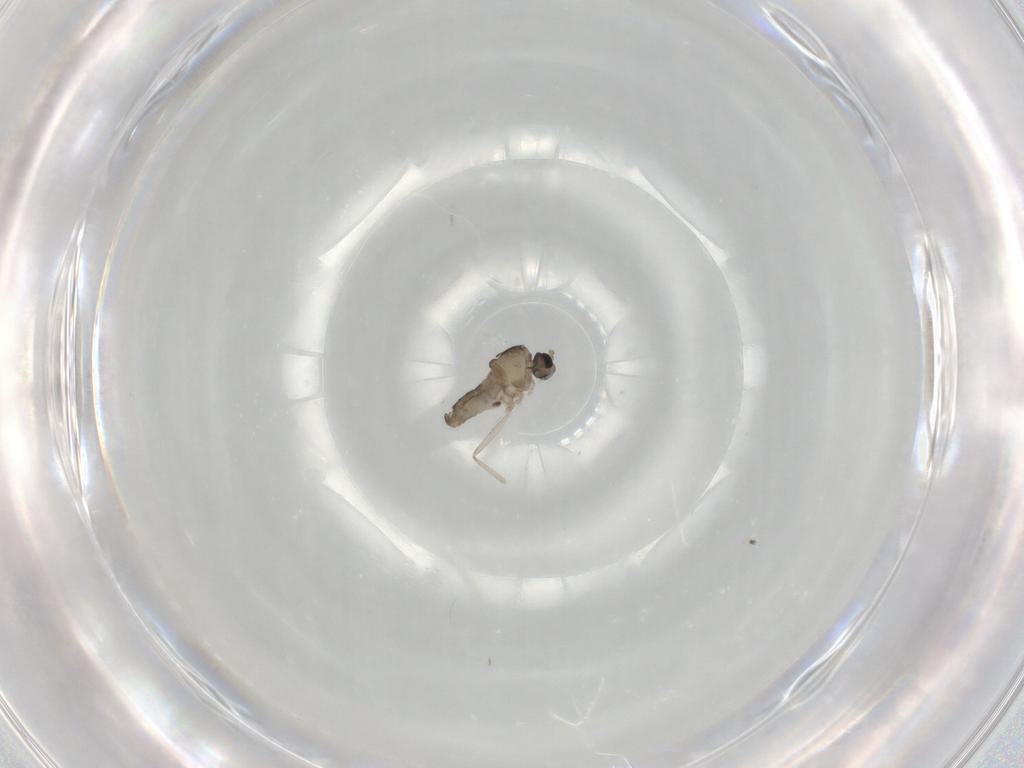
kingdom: Animalia
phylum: Arthropoda
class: Insecta
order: Diptera
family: Cecidomyiidae
